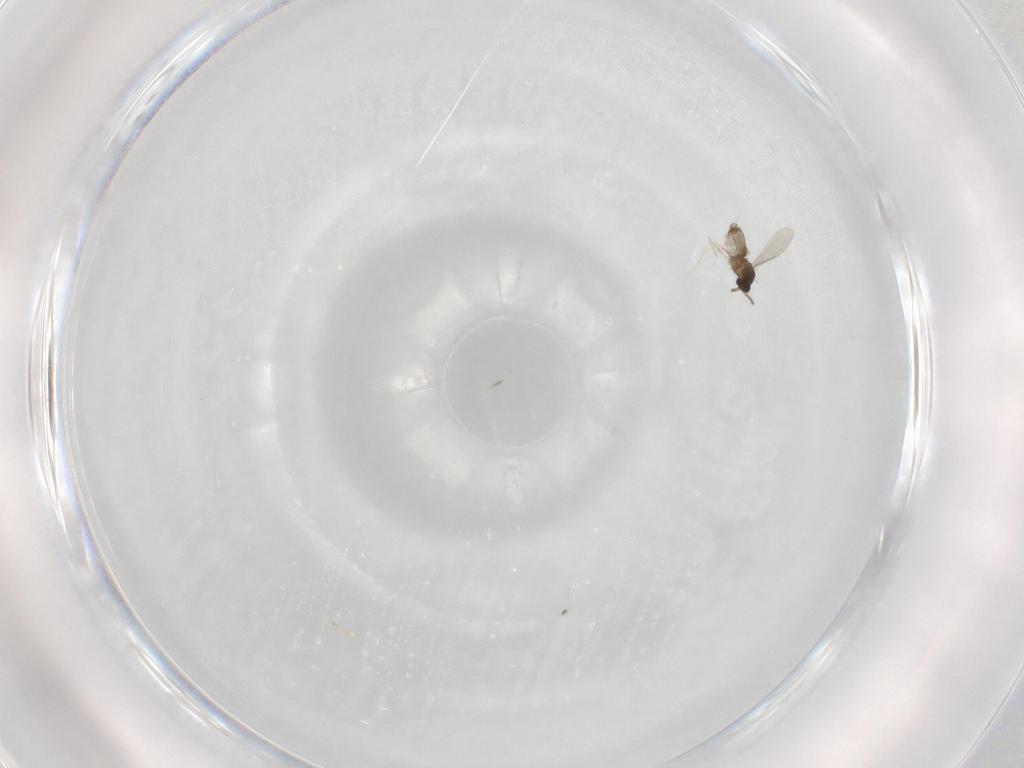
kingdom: Animalia
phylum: Arthropoda
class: Insecta
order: Diptera
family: Cecidomyiidae
